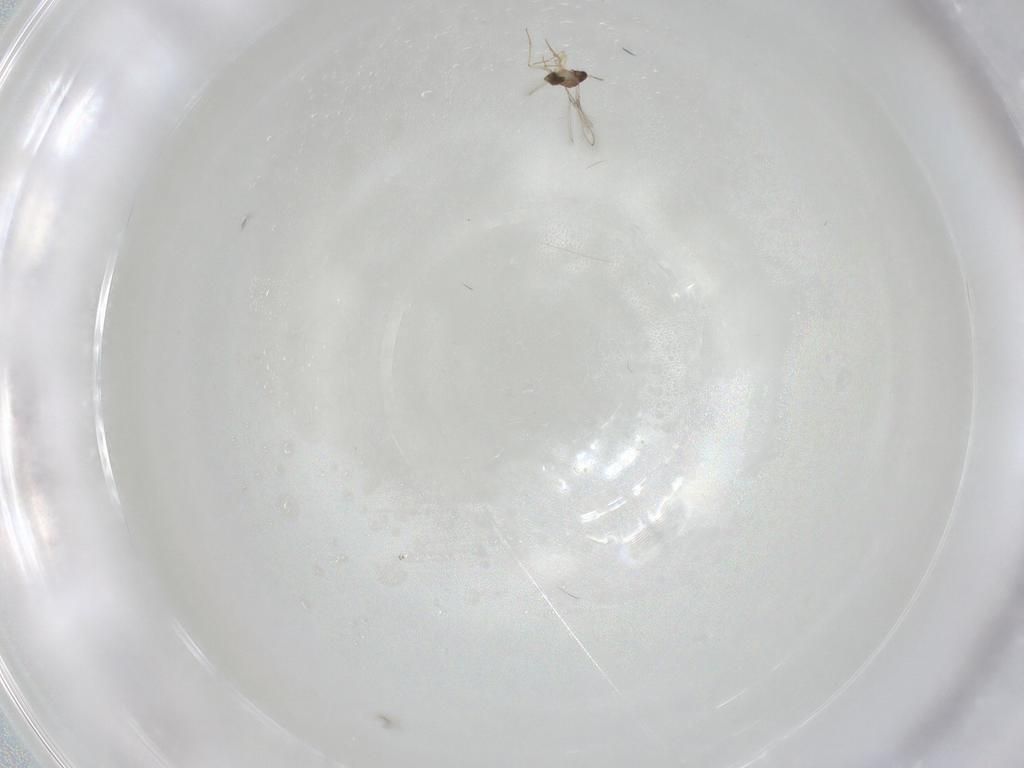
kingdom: Animalia
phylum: Arthropoda
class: Insecta
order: Hymenoptera
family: Mymaridae
